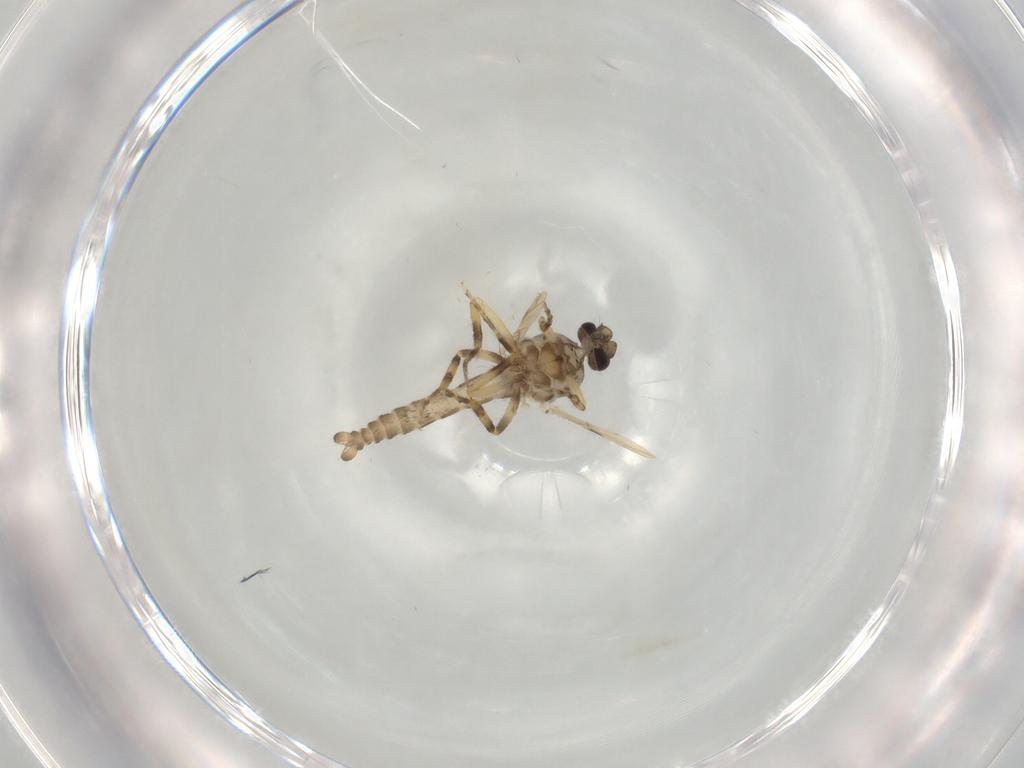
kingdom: Animalia
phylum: Arthropoda
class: Insecta
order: Diptera
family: Ceratopogonidae
